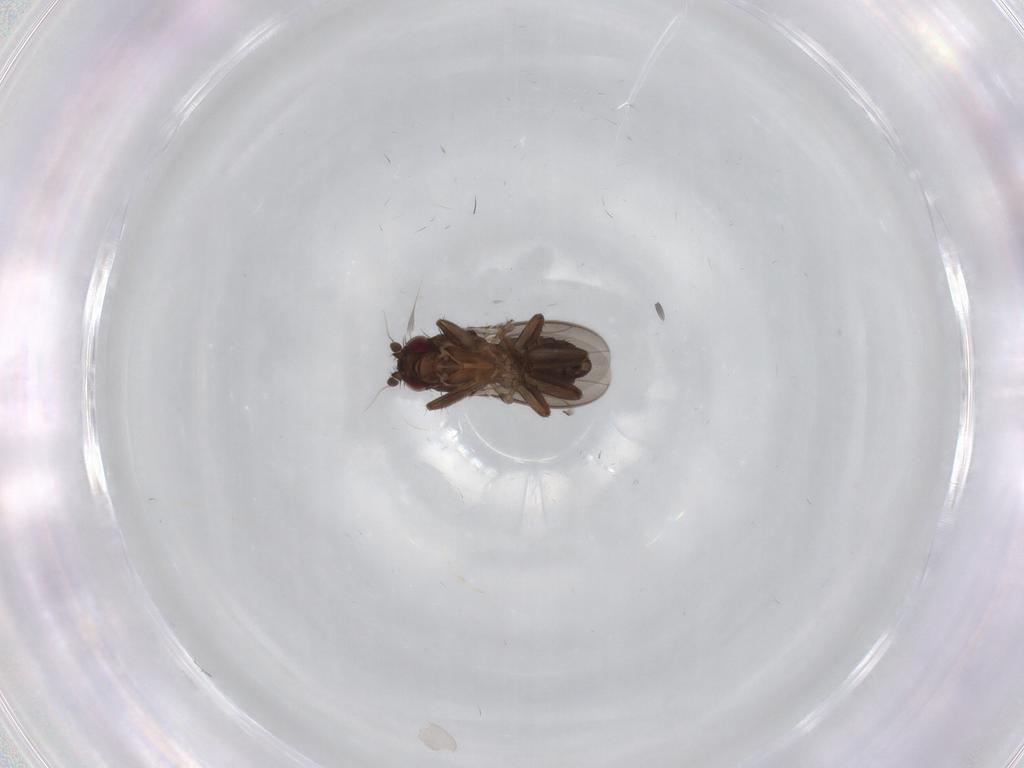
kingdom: Animalia
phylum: Arthropoda
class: Insecta
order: Diptera
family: Sphaeroceridae
